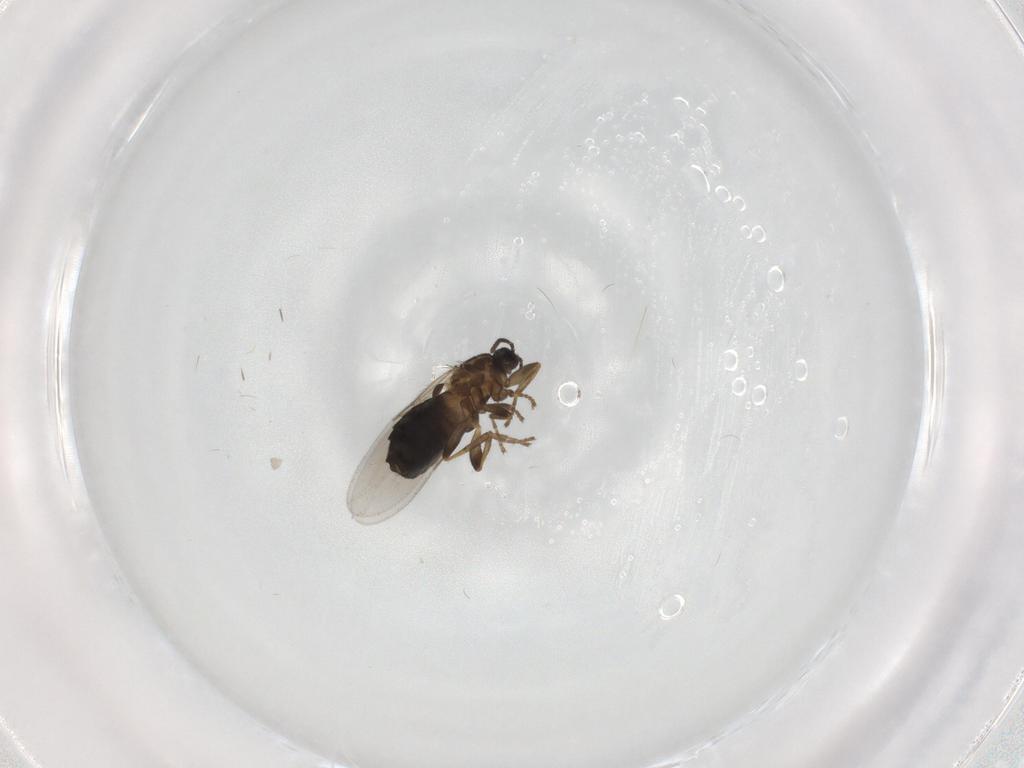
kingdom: Animalia
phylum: Arthropoda
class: Insecta
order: Diptera
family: Scatopsidae
